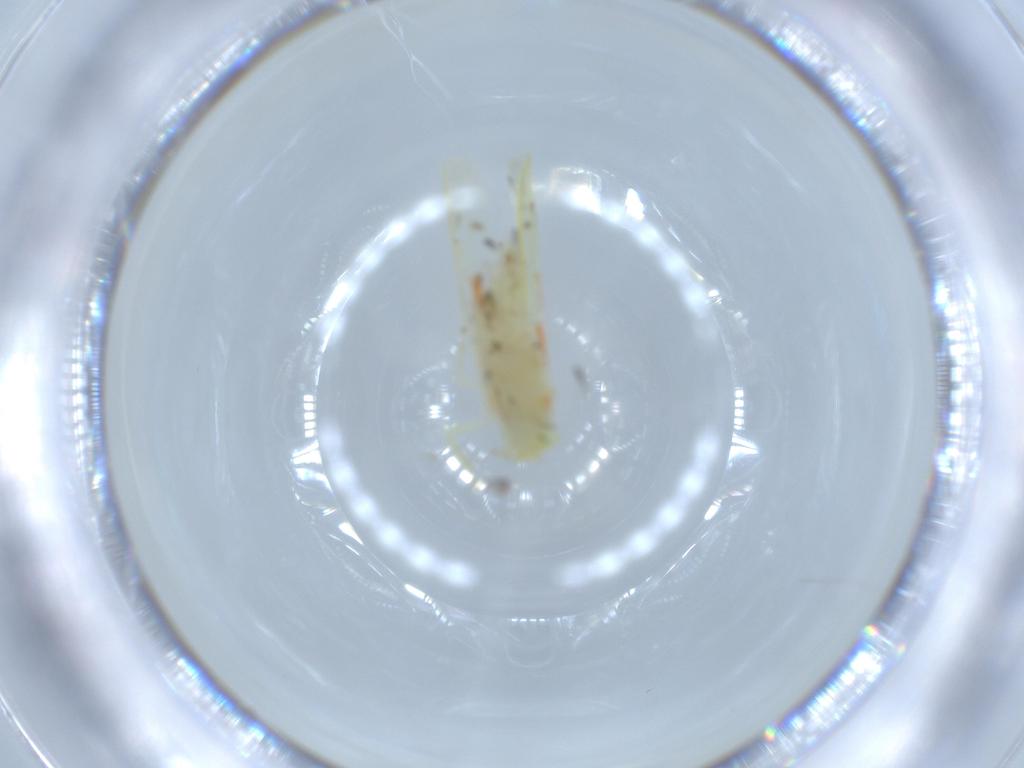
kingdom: Animalia
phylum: Arthropoda
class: Insecta
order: Hemiptera
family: Cicadellidae
